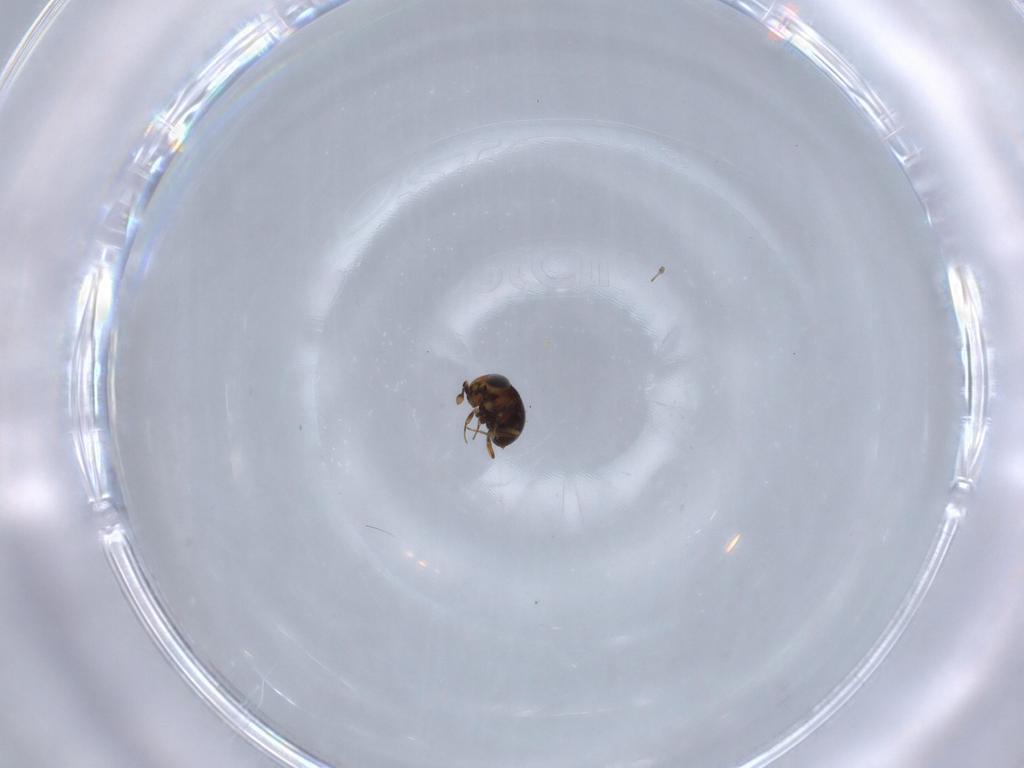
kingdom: Animalia
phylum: Arthropoda
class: Insecta
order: Hymenoptera
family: Scelionidae
